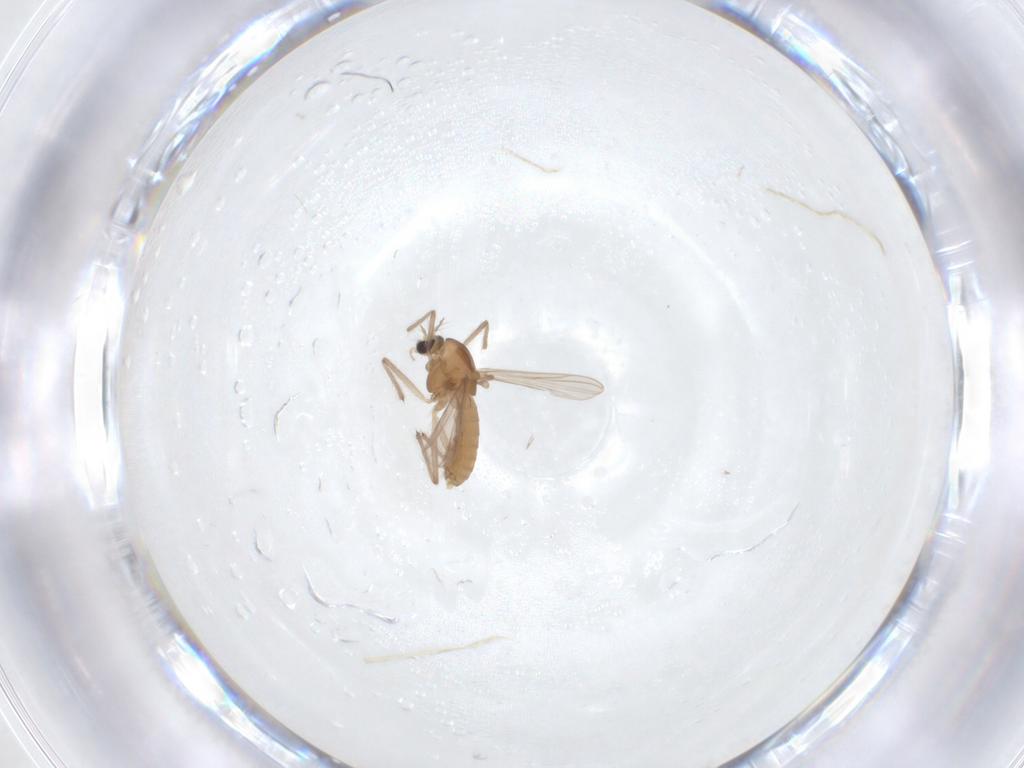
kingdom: Animalia
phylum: Arthropoda
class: Insecta
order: Diptera
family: Chironomidae
